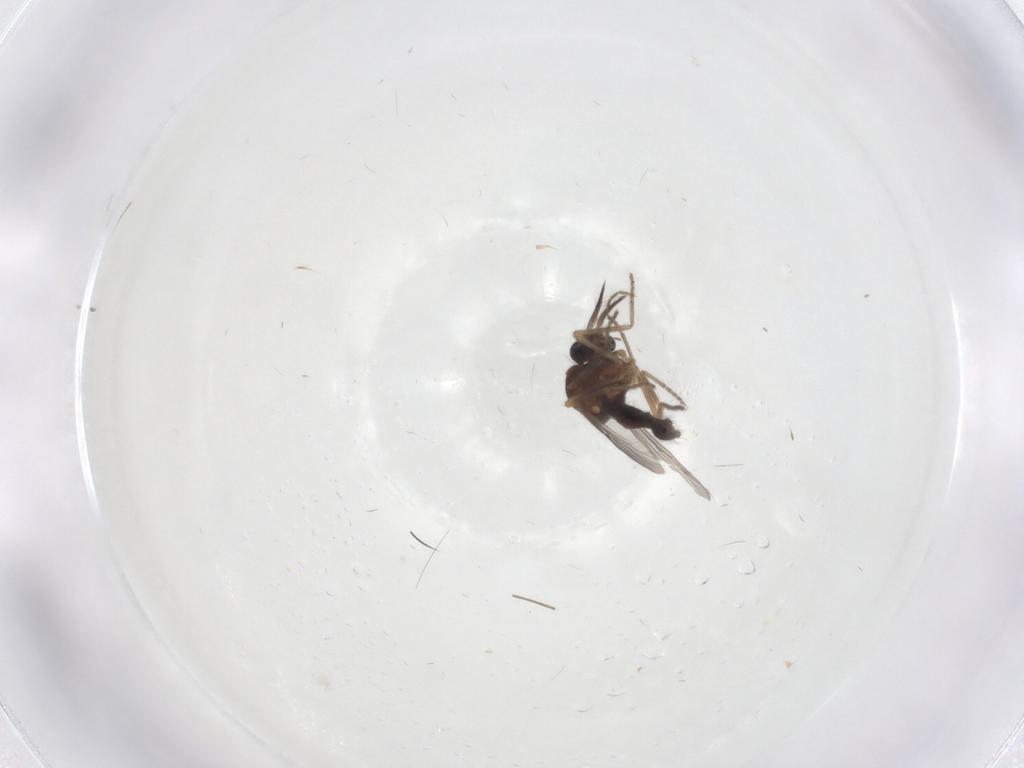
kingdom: Animalia
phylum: Arthropoda
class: Insecta
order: Diptera
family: Ceratopogonidae
